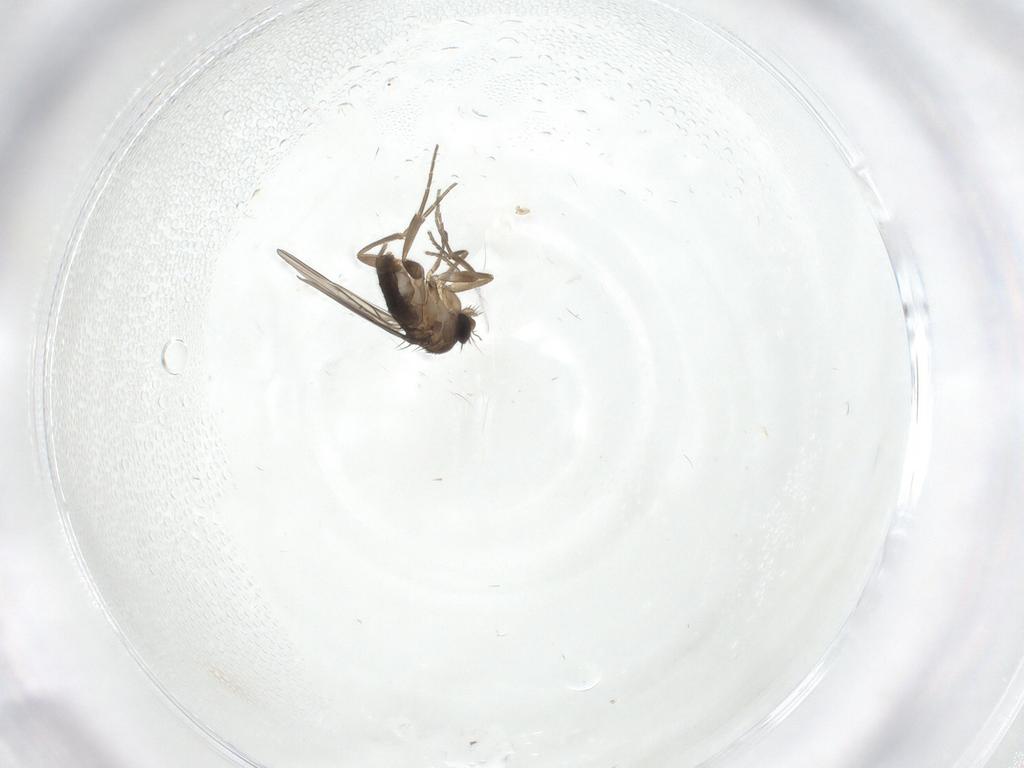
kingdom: Animalia
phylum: Arthropoda
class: Insecta
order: Diptera
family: Phoridae
